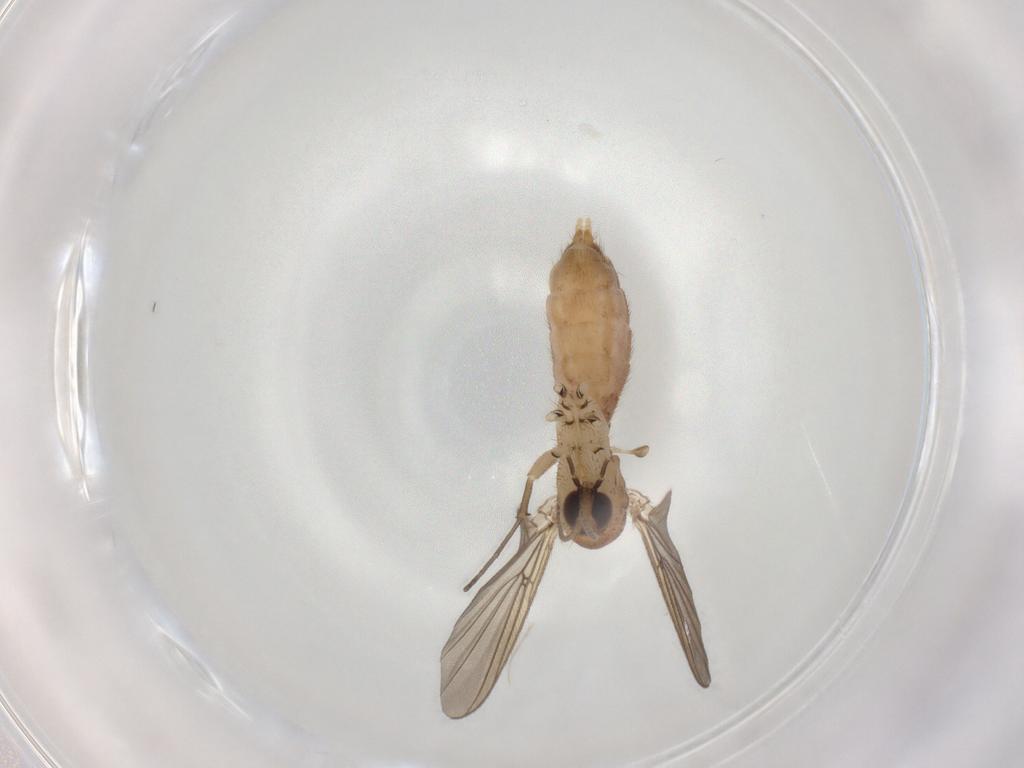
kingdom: Animalia
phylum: Arthropoda
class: Insecta
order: Diptera
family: Mycetophilidae
